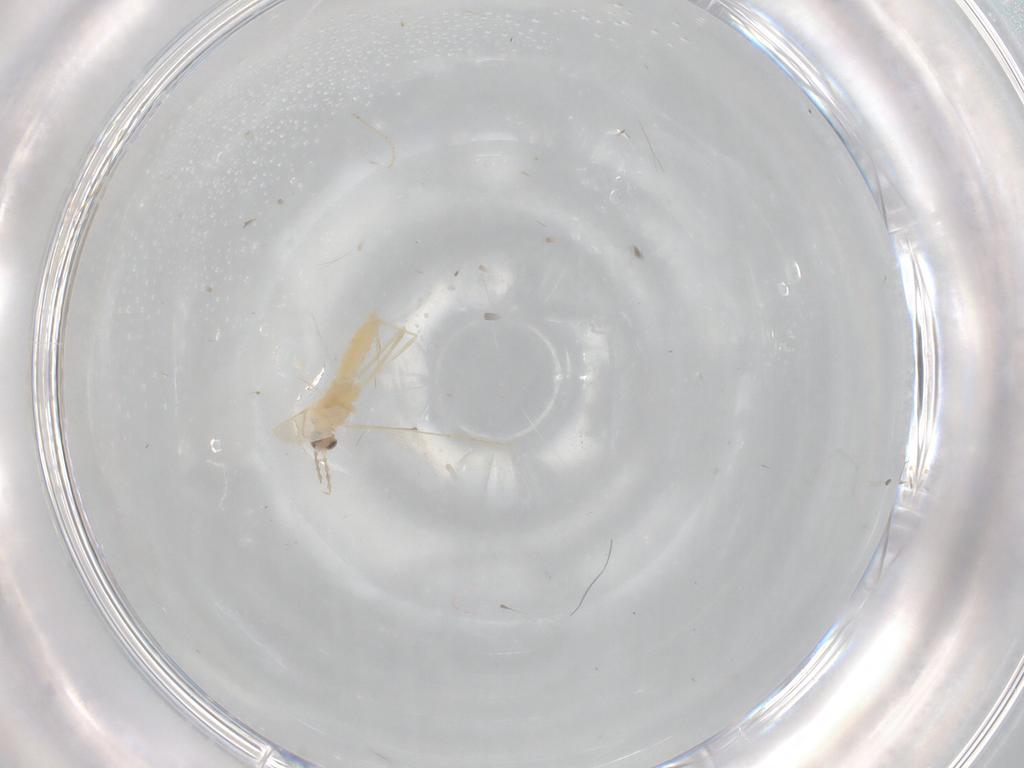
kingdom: Animalia
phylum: Arthropoda
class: Insecta
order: Diptera
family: Cecidomyiidae
